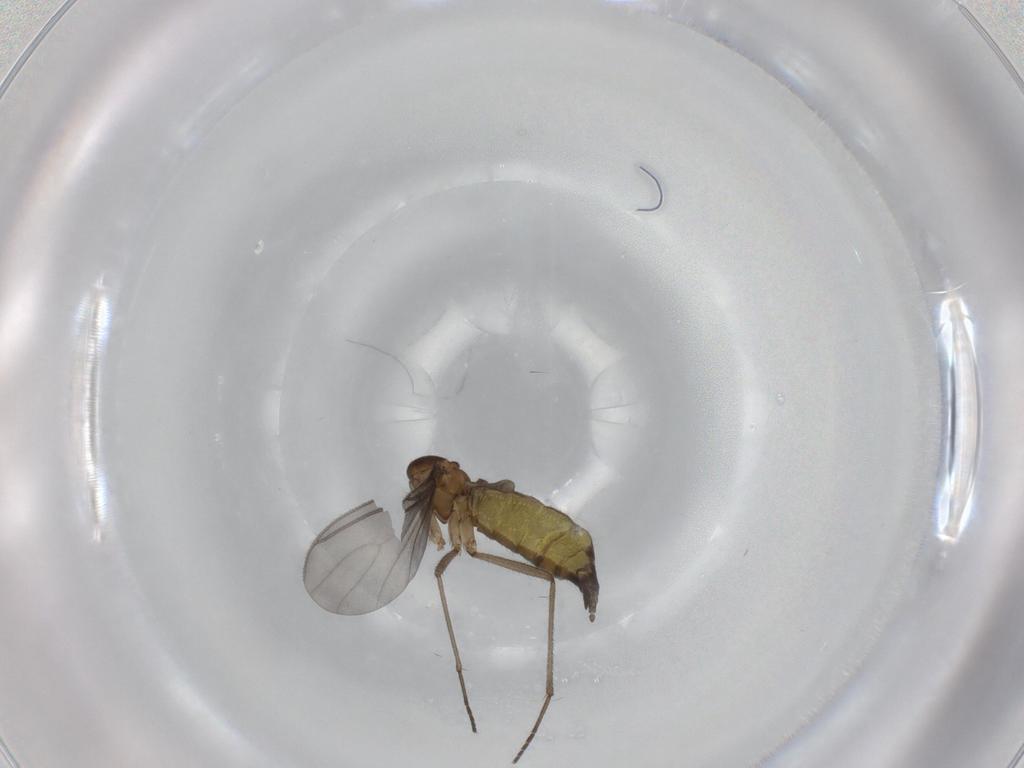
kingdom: Animalia
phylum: Arthropoda
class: Insecta
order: Diptera
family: Sciaridae
